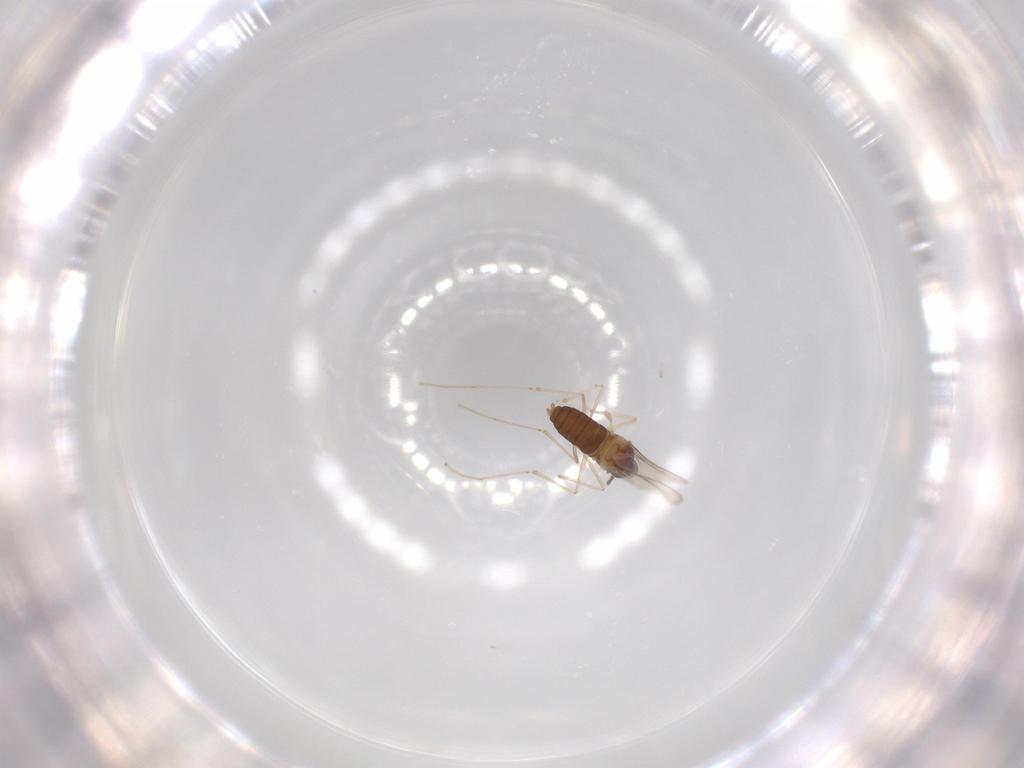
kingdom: Animalia
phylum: Arthropoda
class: Insecta
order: Diptera
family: Cecidomyiidae
